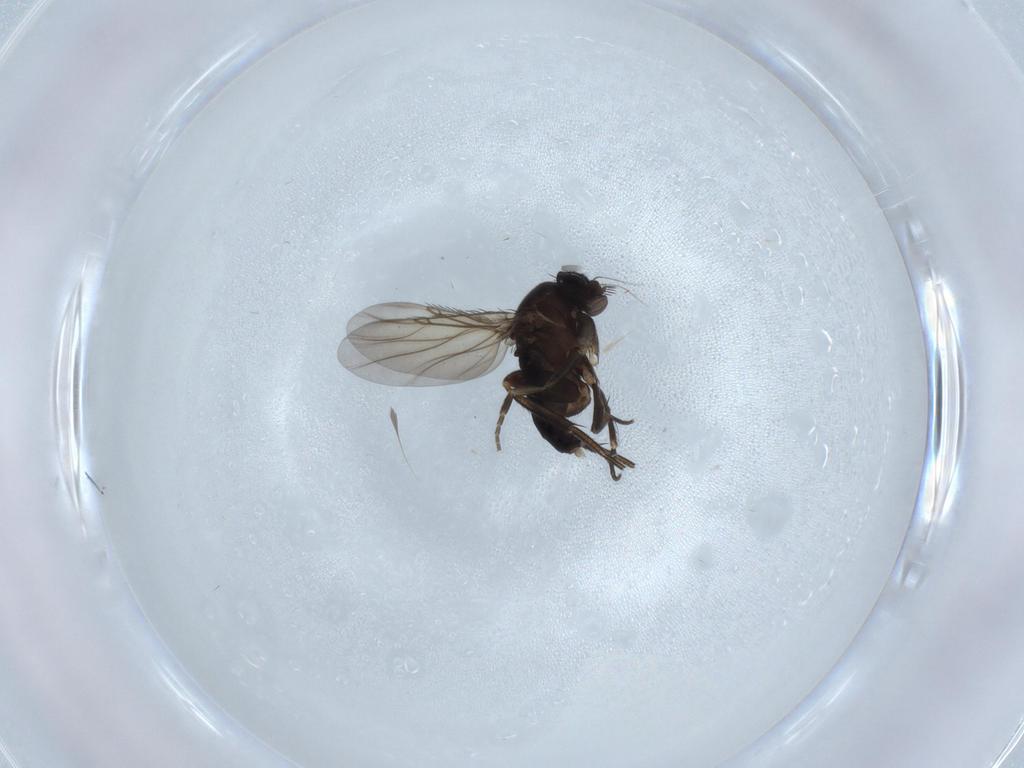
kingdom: Animalia
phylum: Arthropoda
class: Insecta
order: Diptera
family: Phoridae
